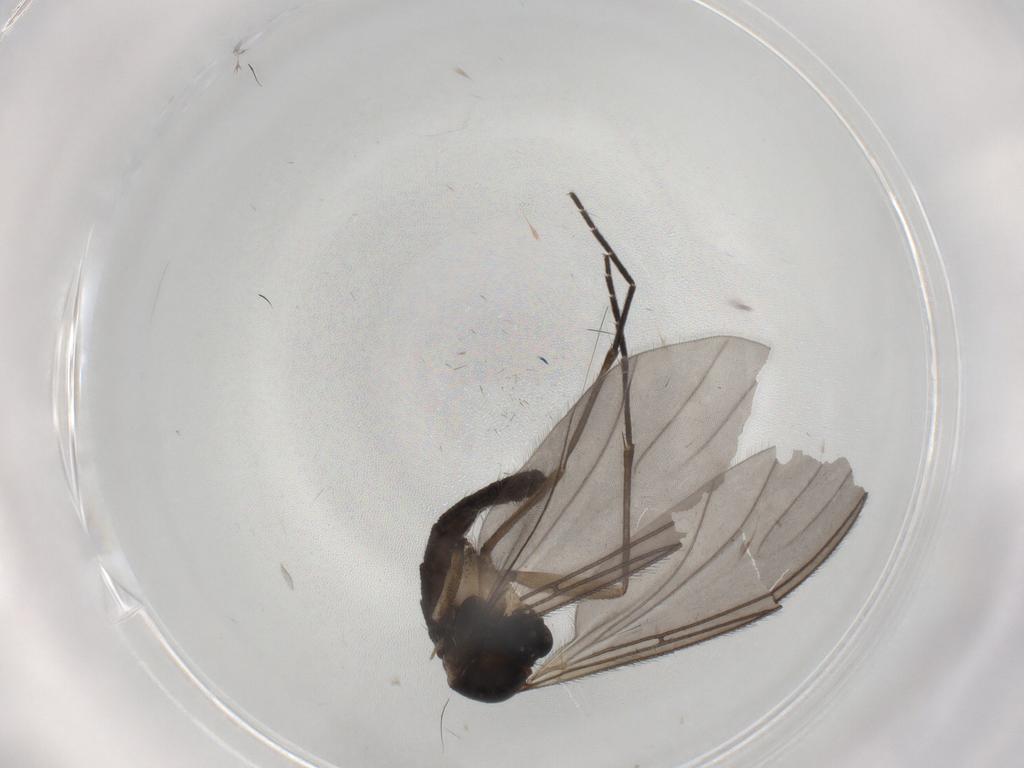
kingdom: Animalia
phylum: Arthropoda
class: Insecta
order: Diptera
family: Sciaridae
